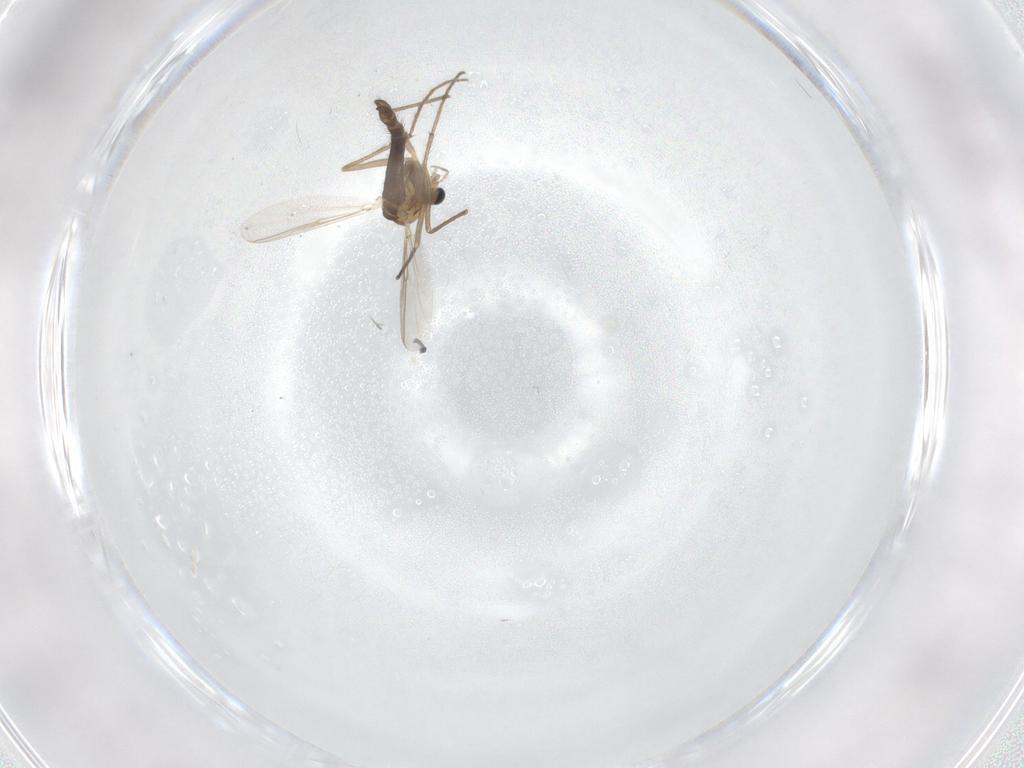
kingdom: Animalia
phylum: Arthropoda
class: Insecta
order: Diptera
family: Chironomidae
